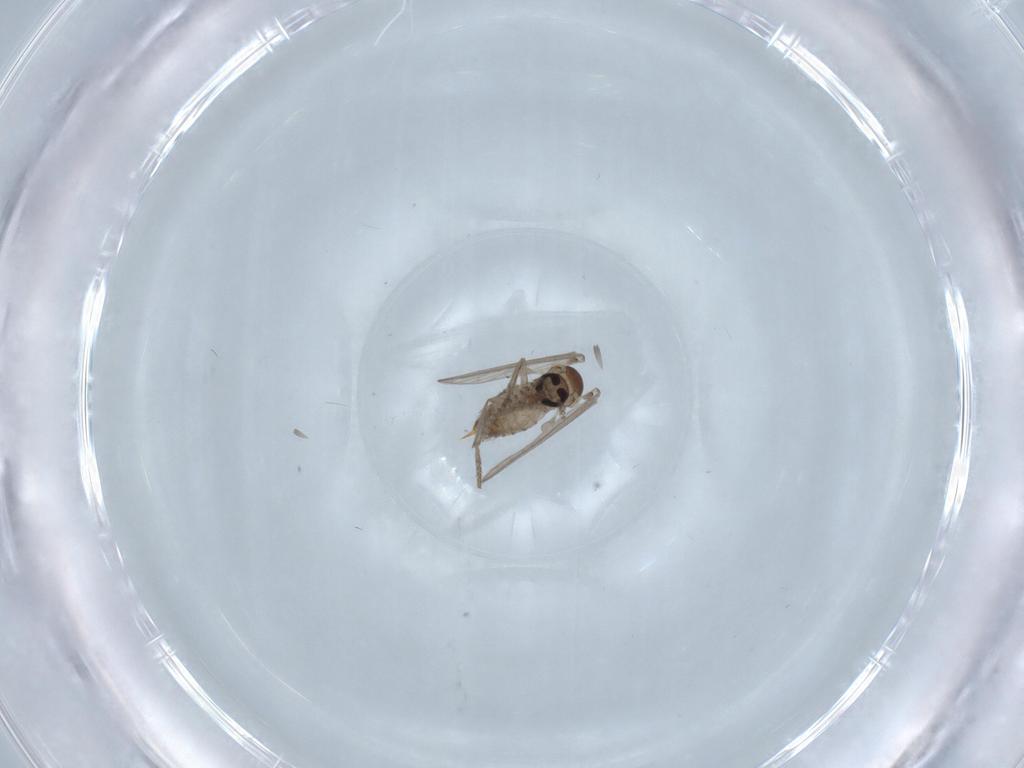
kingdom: Animalia
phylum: Arthropoda
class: Insecta
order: Diptera
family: Psychodidae
